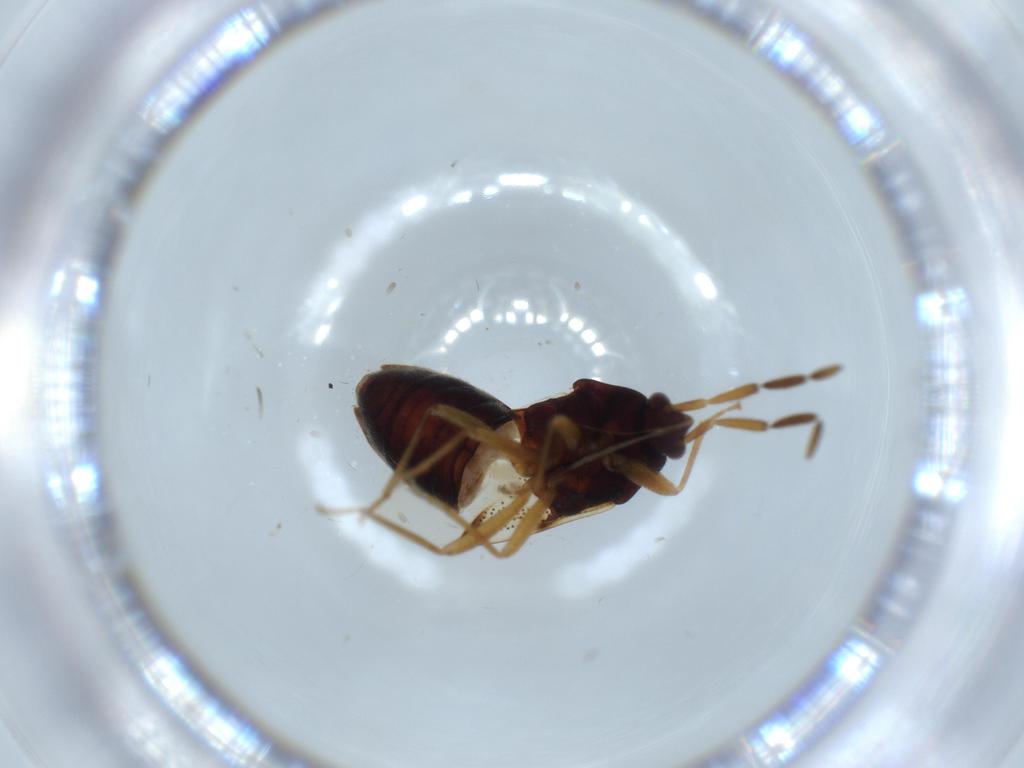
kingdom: Animalia
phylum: Arthropoda
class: Insecta
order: Hemiptera
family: Rhyparochromidae
